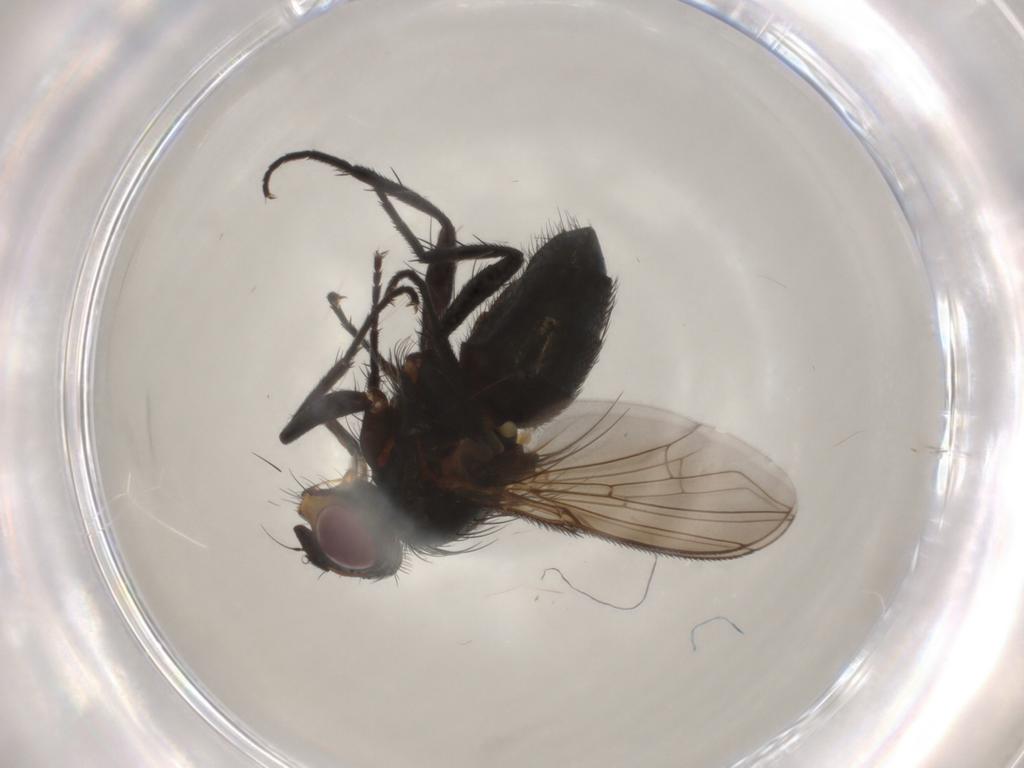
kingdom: Animalia
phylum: Arthropoda
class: Insecta
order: Diptera
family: Calliphoridae
